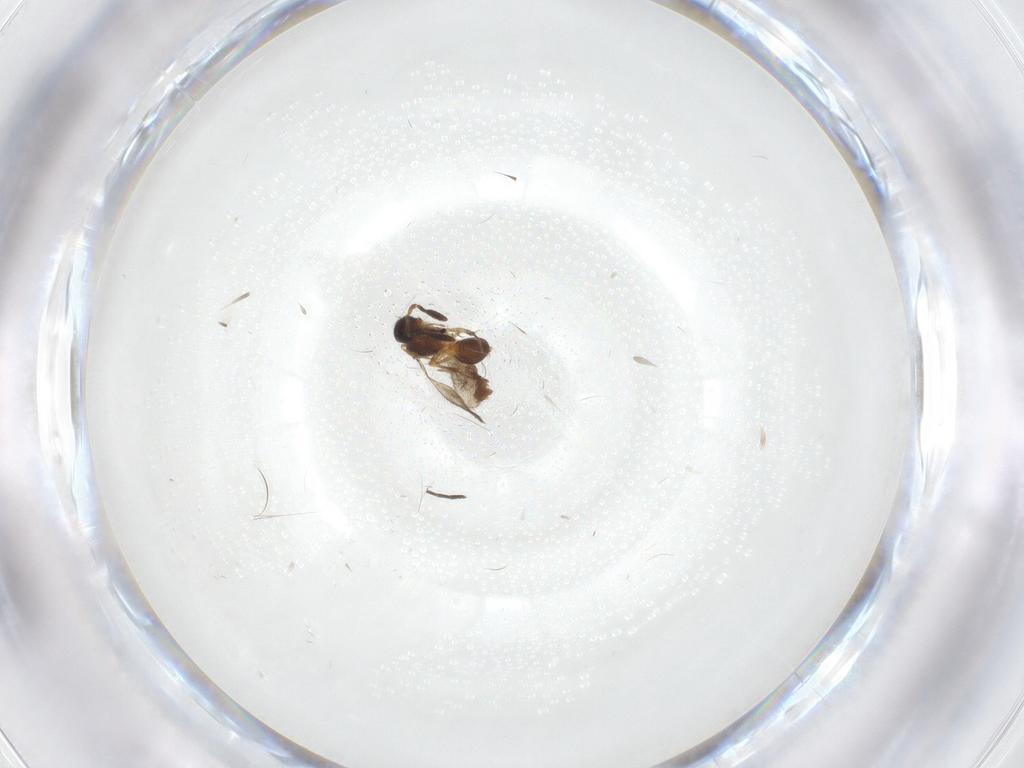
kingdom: Animalia
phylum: Arthropoda
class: Insecta
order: Hymenoptera
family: Scelionidae
